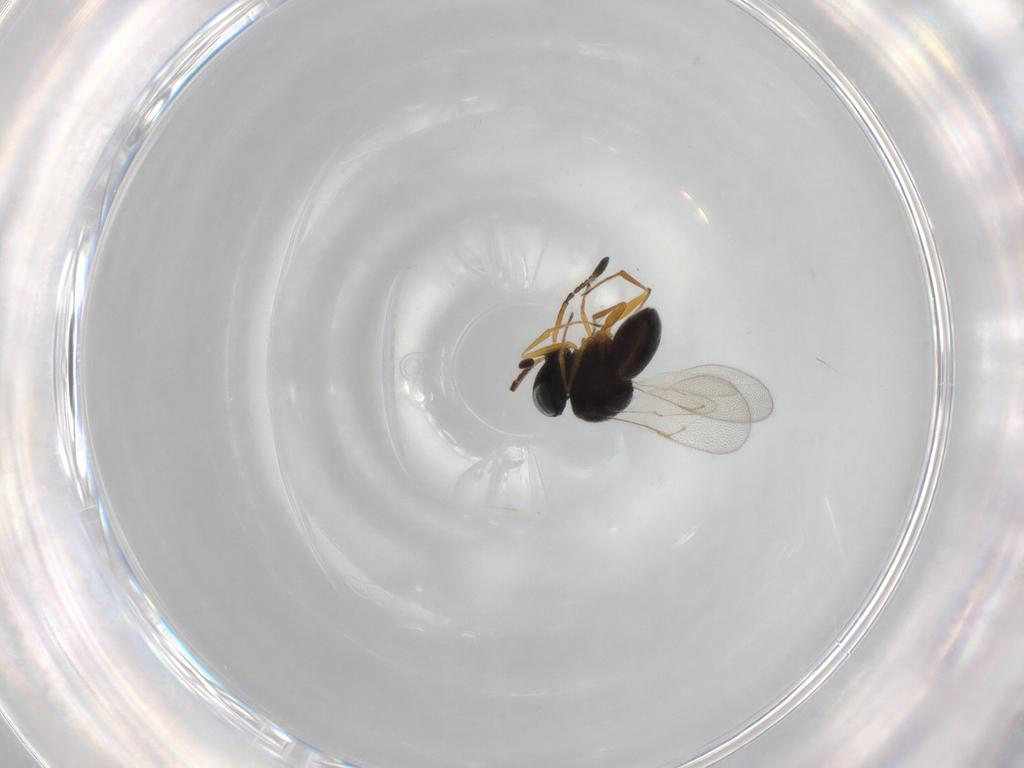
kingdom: Animalia
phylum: Arthropoda
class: Insecta
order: Hymenoptera
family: Scelionidae
